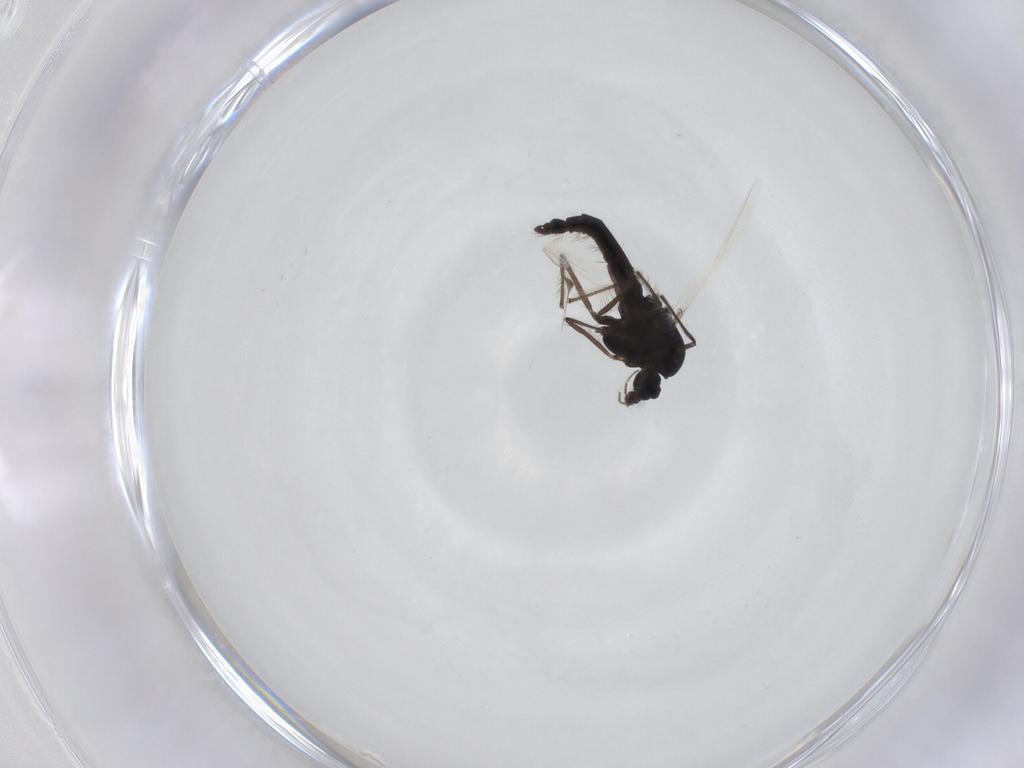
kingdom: Animalia
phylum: Arthropoda
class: Insecta
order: Diptera
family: Chironomidae
